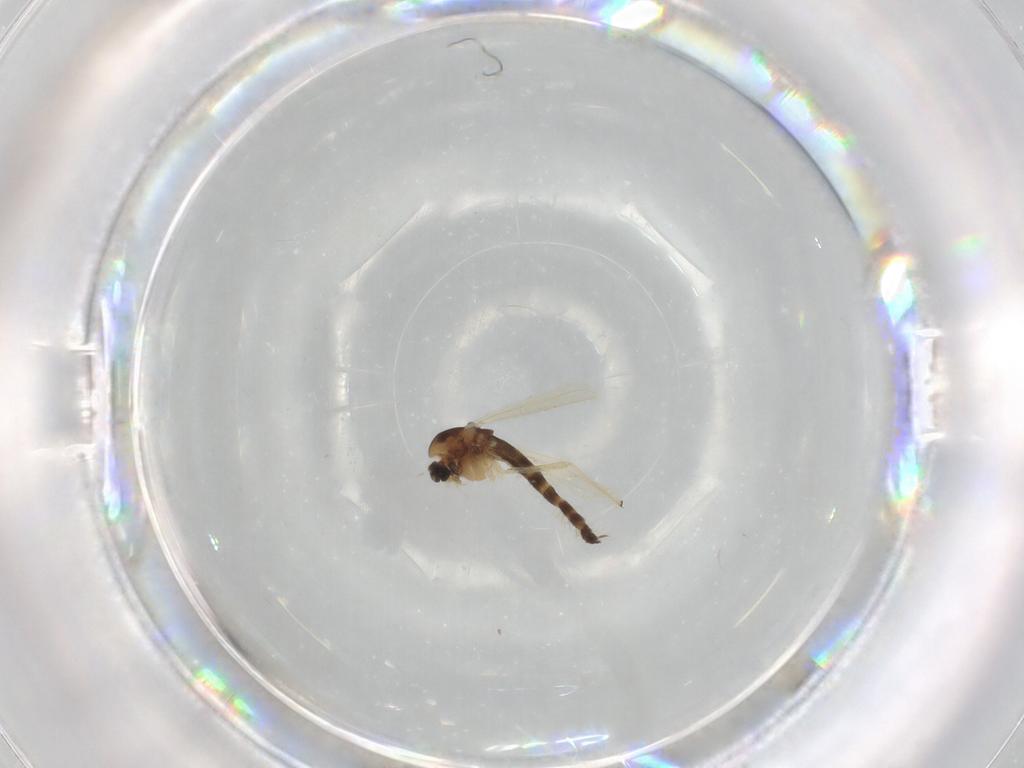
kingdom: Animalia
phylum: Arthropoda
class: Insecta
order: Diptera
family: Chironomidae
